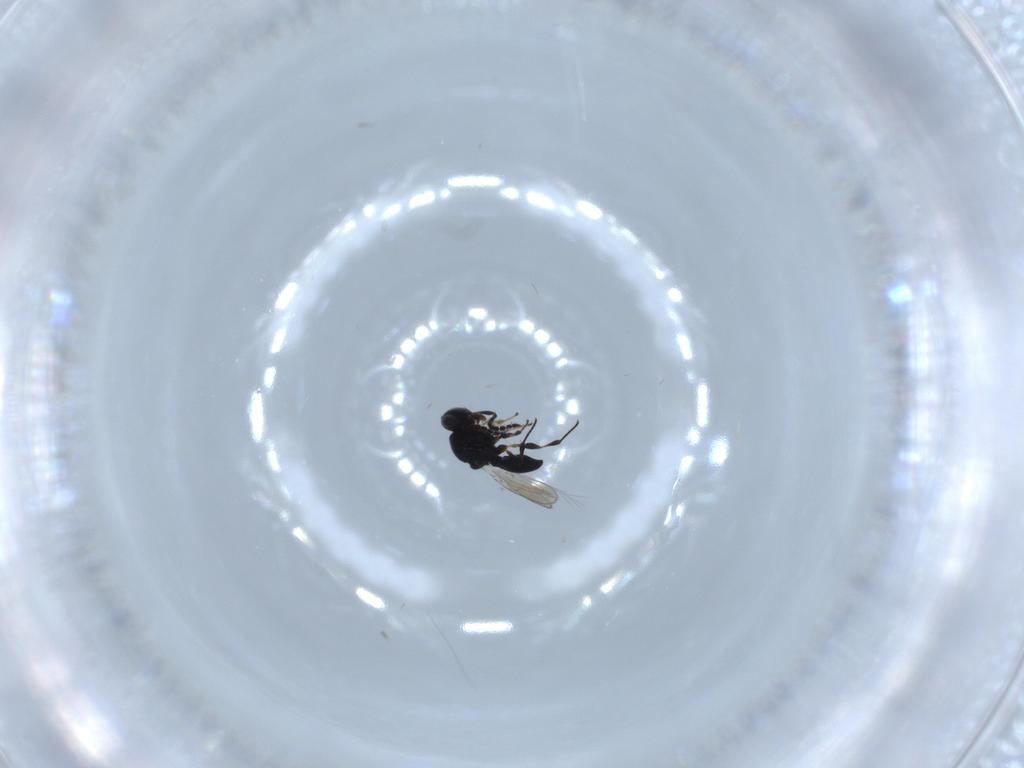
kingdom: Animalia
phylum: Arthropoda
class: Insecta
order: Hymenoptera
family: Platygastridae
